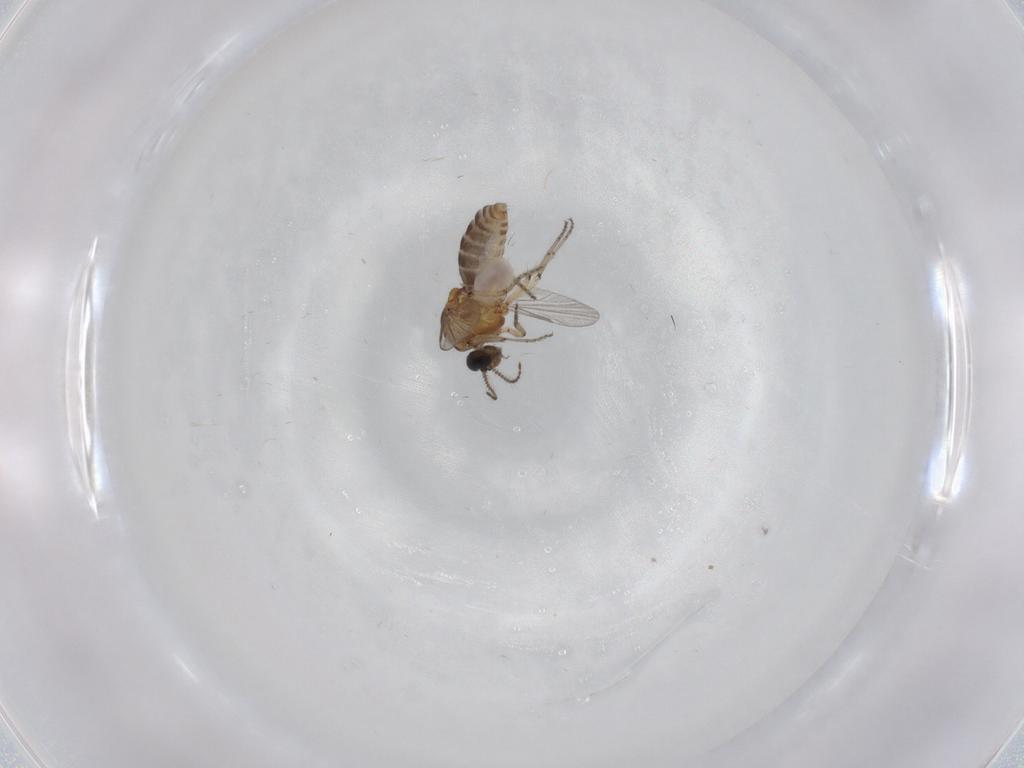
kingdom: Animalia
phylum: Arthropoda
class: Insecta
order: Diptera
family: Ceratopogonidae
